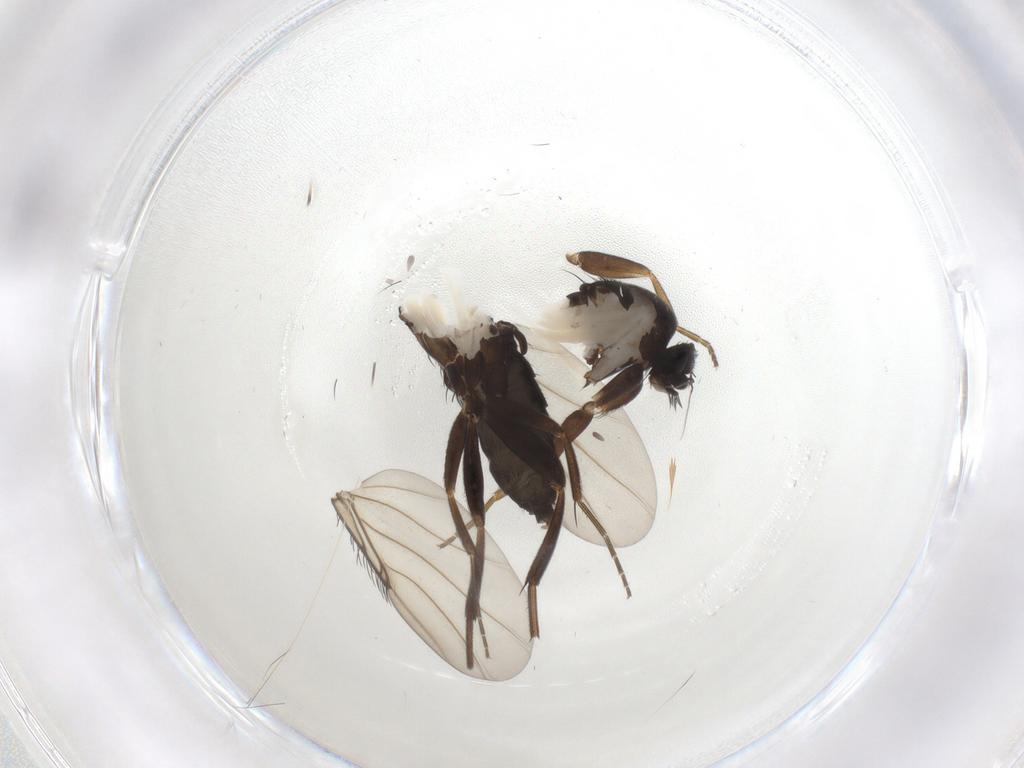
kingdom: Animalia
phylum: Arthropoda
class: Insecta
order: Diptera
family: Phoridae
